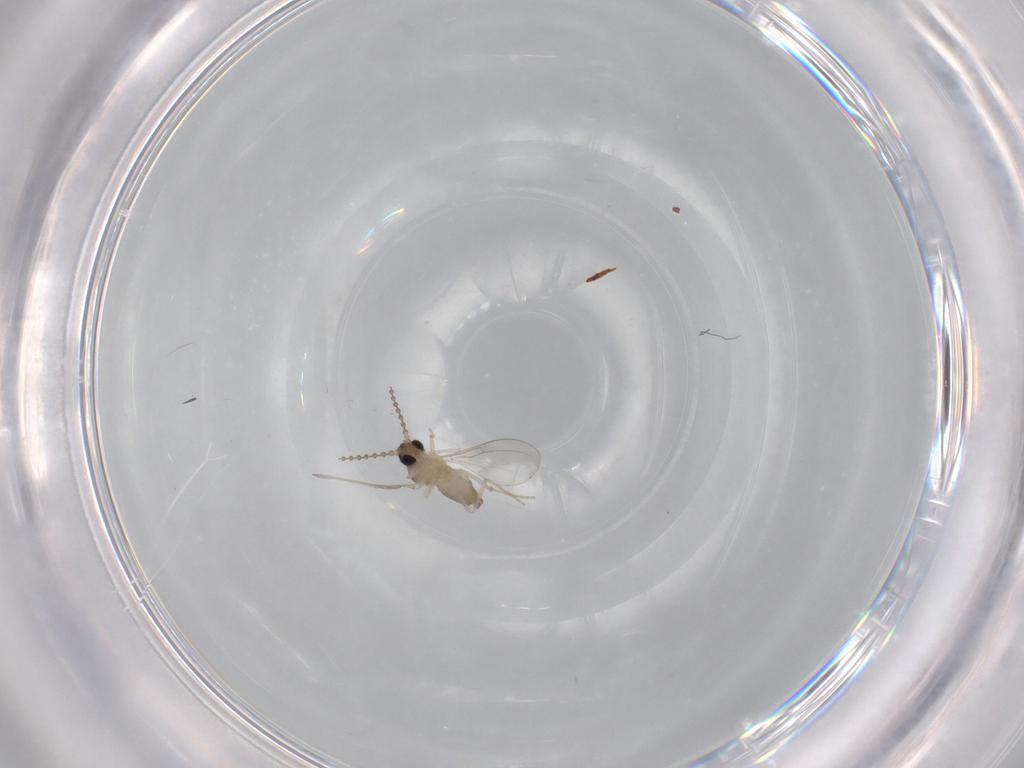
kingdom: Animalia
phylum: Arthropoda
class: Insecta
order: Diptera
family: Cecidomyiidae
